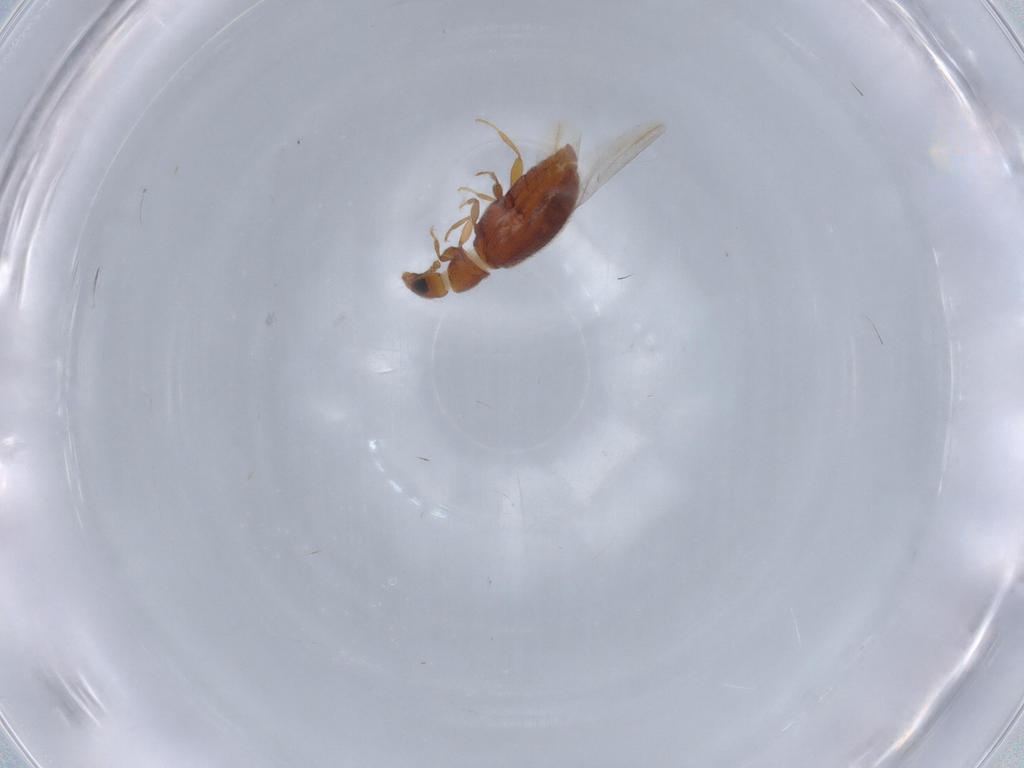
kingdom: Animalia
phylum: Arthropoda
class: Insecta
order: Coleoptera
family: Latridiidae
